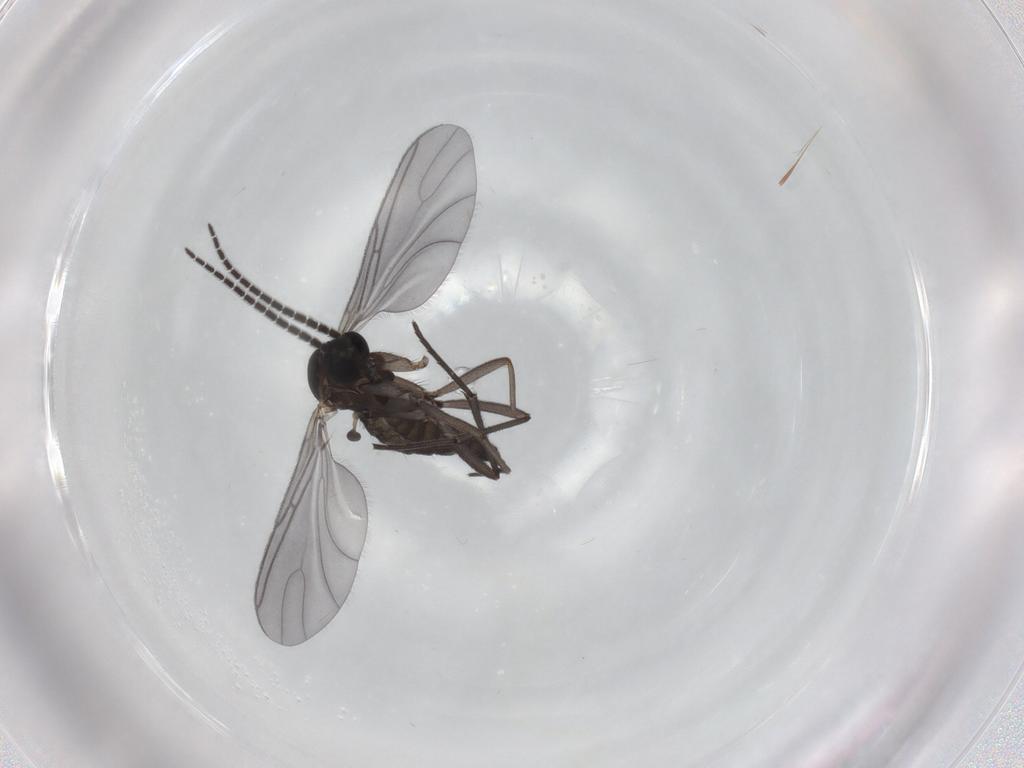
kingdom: Animalia
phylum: Arthropoda
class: Insecta
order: Diptera
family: Sciaridae
